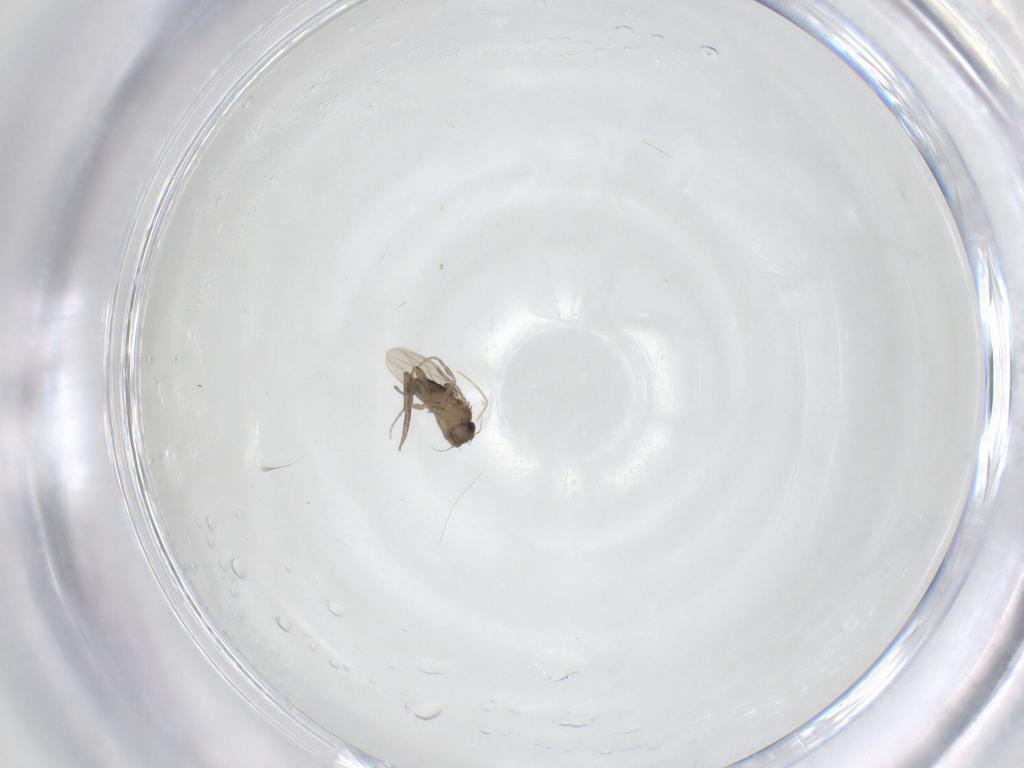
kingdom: Animalia
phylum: Arthropoda
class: Insecta
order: Diptera
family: Phoridae
